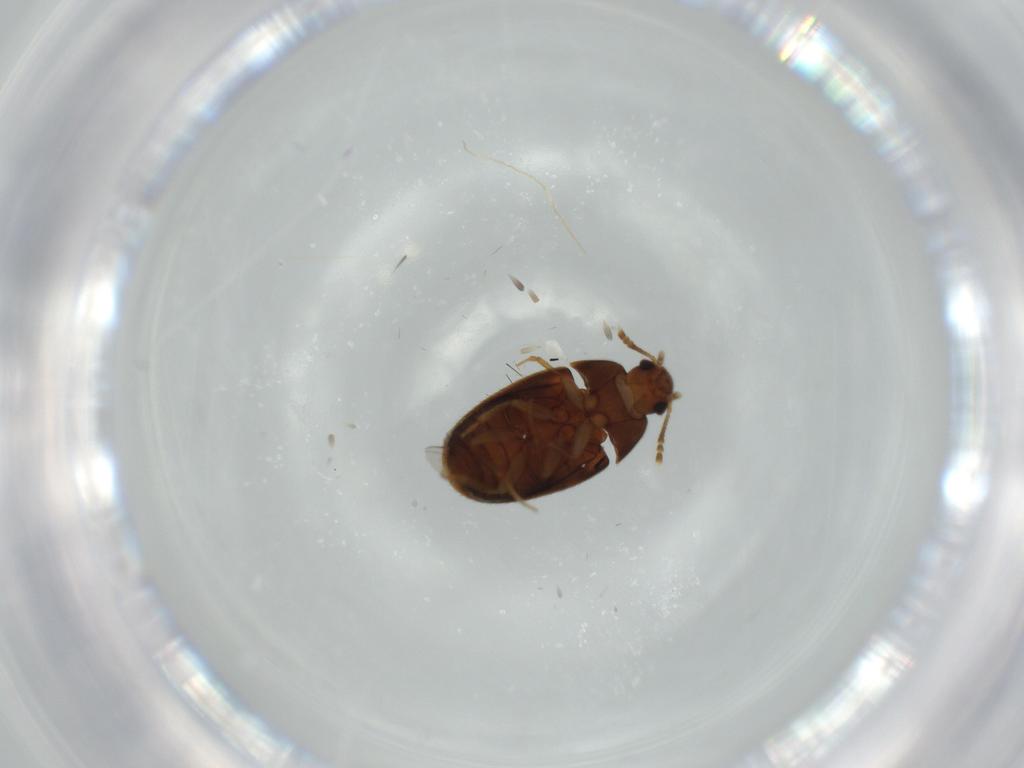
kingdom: Animalia
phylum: Arthropoda
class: Insecta
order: Coleoptera
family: Mycetophagidae
